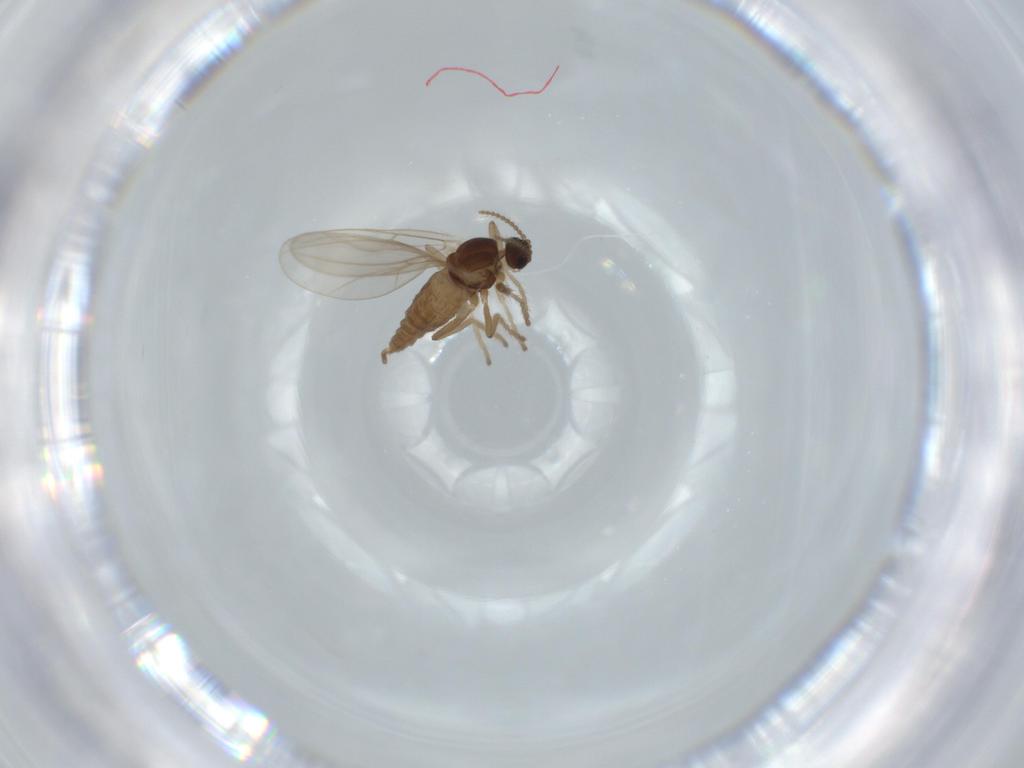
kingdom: Animalia
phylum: Arthropoda
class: Insecta
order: Diptera
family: Cecidomyiidae
